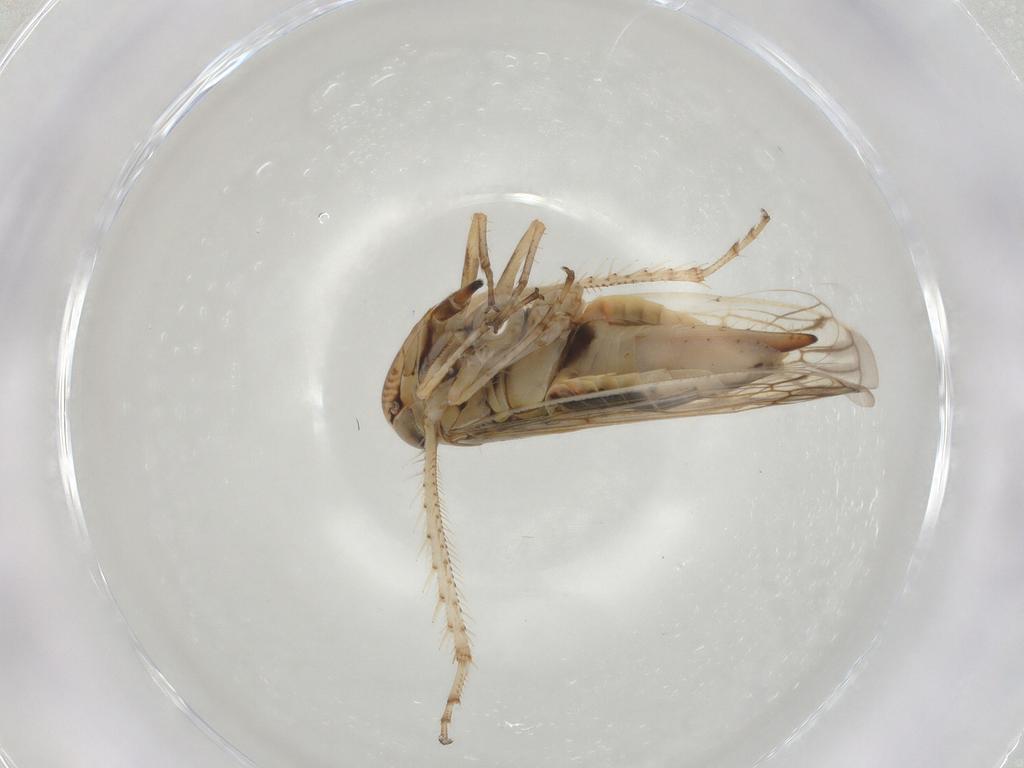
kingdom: Animalia
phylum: Arthropoda
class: Insecta
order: Hemiptera
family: Cicadellidae
